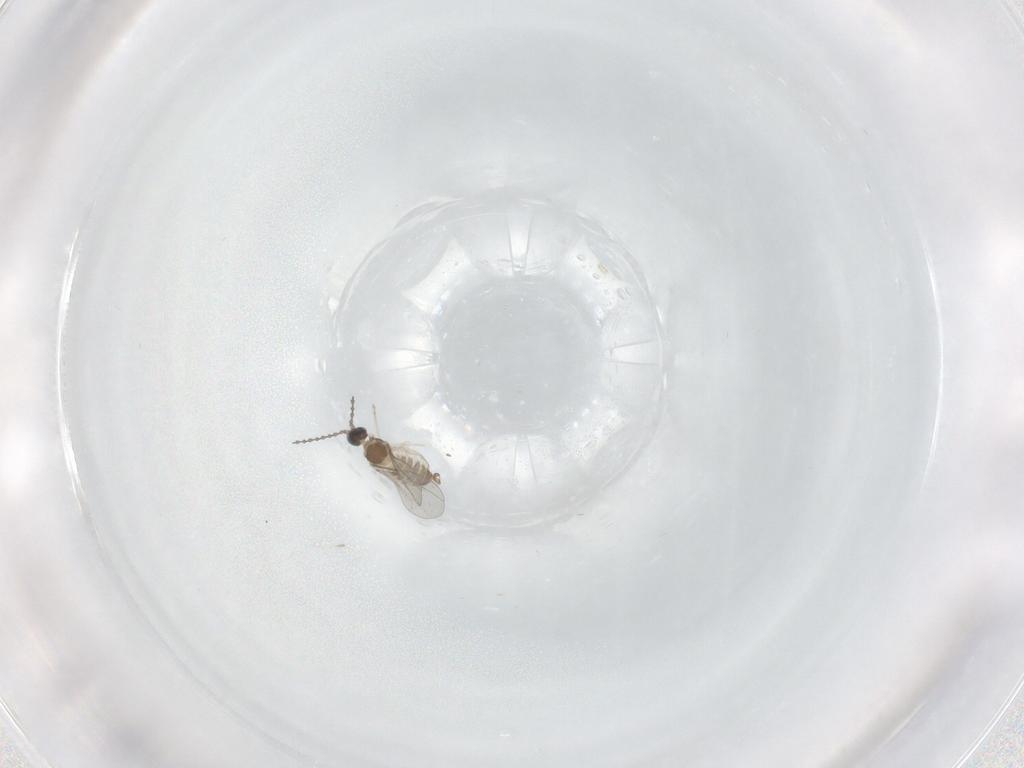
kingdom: Animalia
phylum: Arthropoda
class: Insecta
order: Diptera
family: Cecidomyiidae
